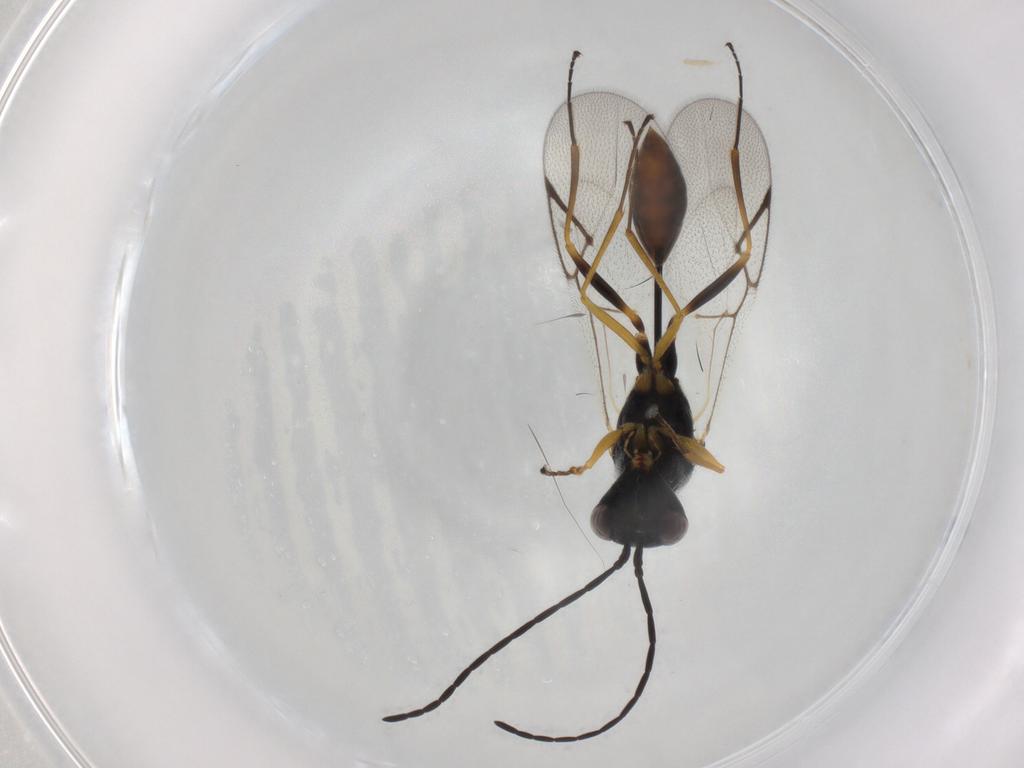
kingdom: Animalia
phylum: Arthropoda
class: Insecta
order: Hymenoptera
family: Figitidae
